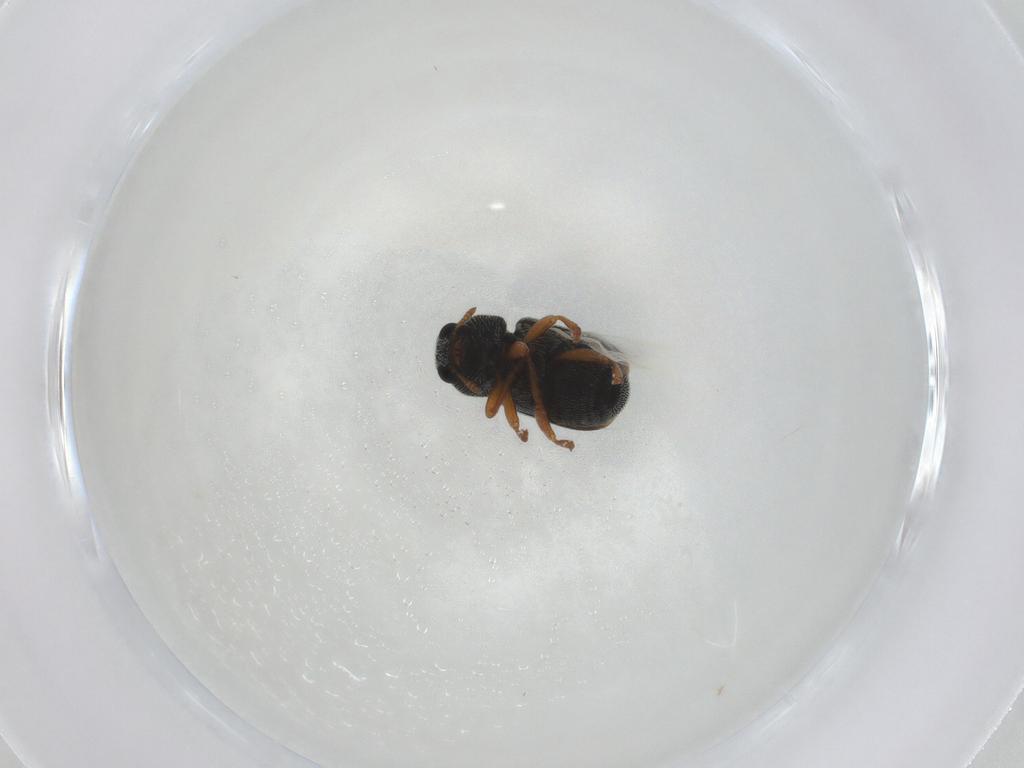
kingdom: Animalia
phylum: Arthropoda
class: Insecta
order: Coleoptera
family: Anthribidae
